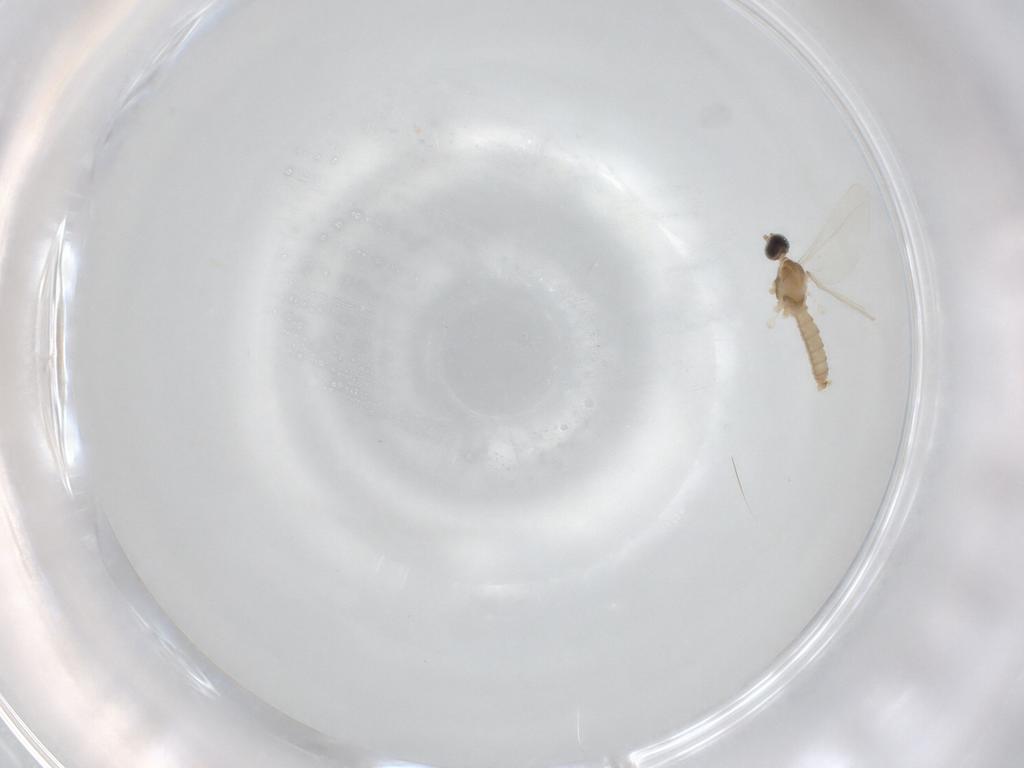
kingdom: Animalia
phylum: Arthropoda
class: Insecta
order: Diptera
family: Cecidomyiidae
